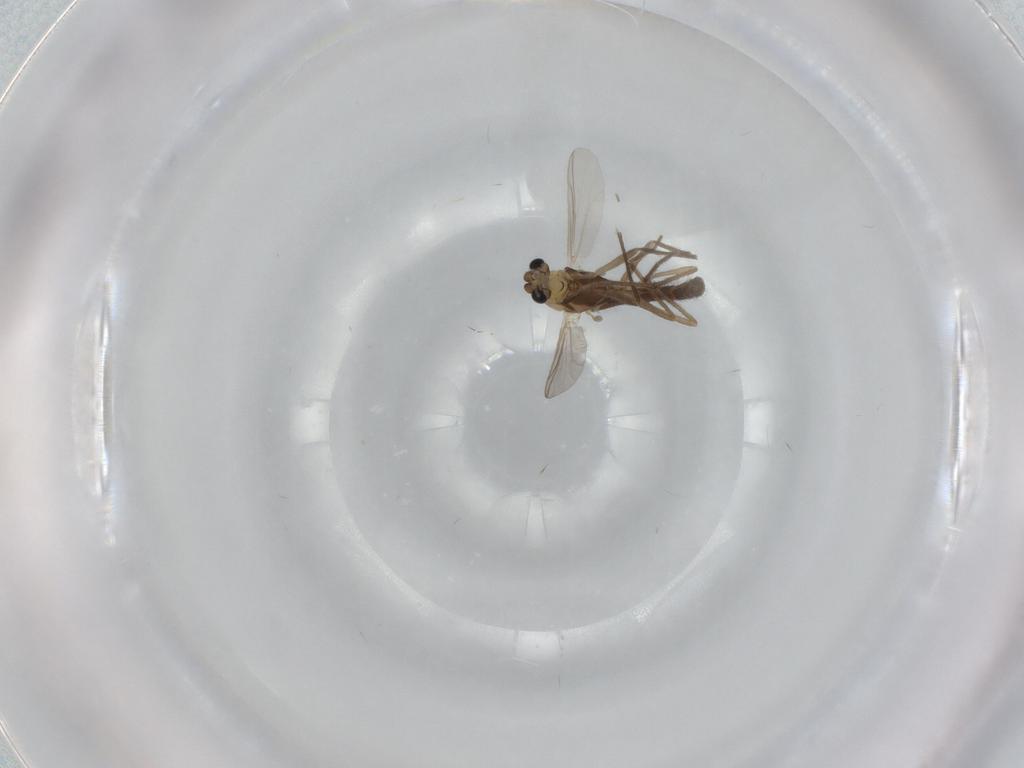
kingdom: Animalia
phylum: Arthropoda
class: Insecta
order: Diptera
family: Chironomidae
